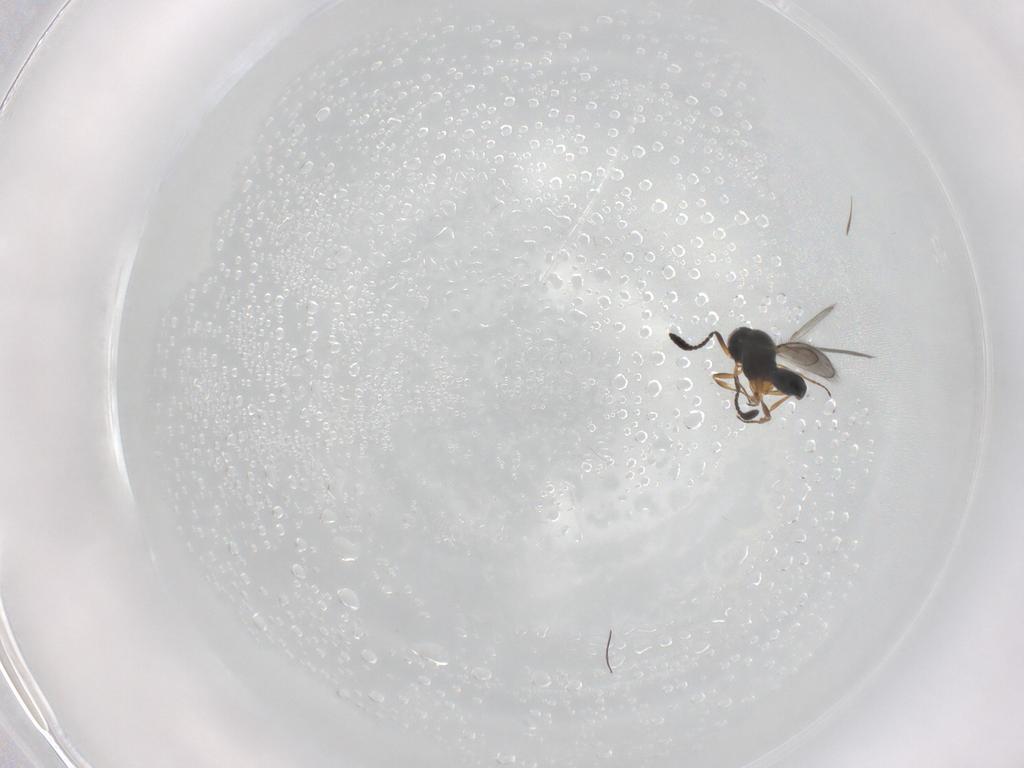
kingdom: Animalia
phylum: Arthropoda
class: Insecta
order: Hymenoptera
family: Scelionidae
